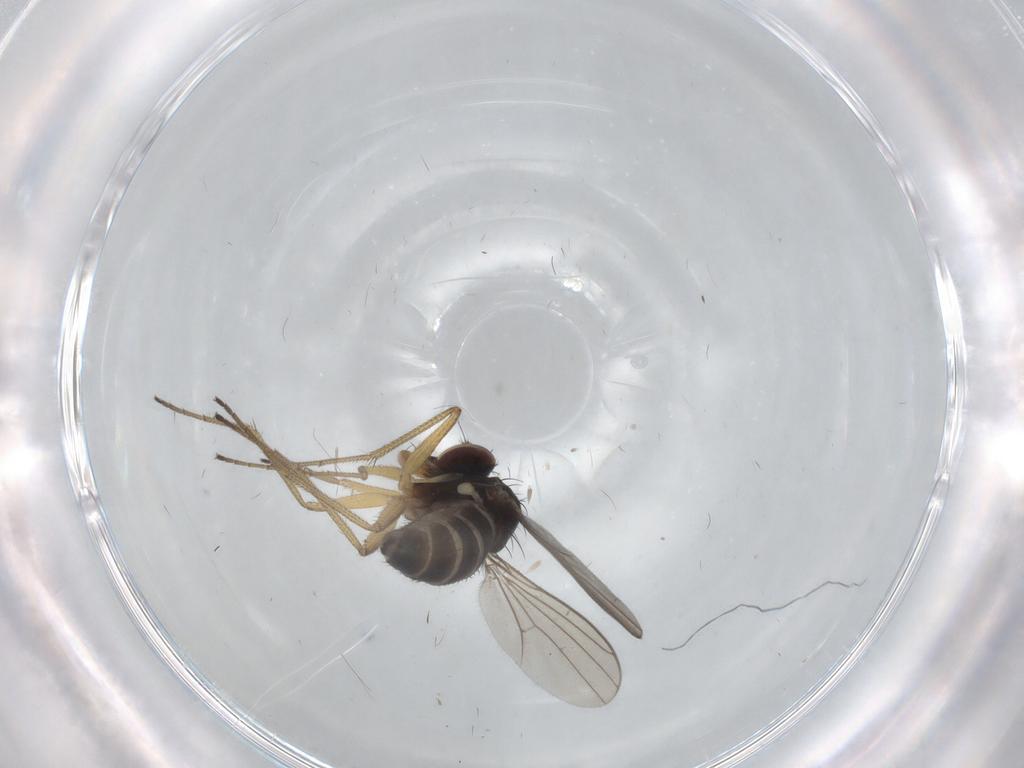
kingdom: Animalia
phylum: Arthropoda
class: Insecta
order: Diptera
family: Dolichopodidae
